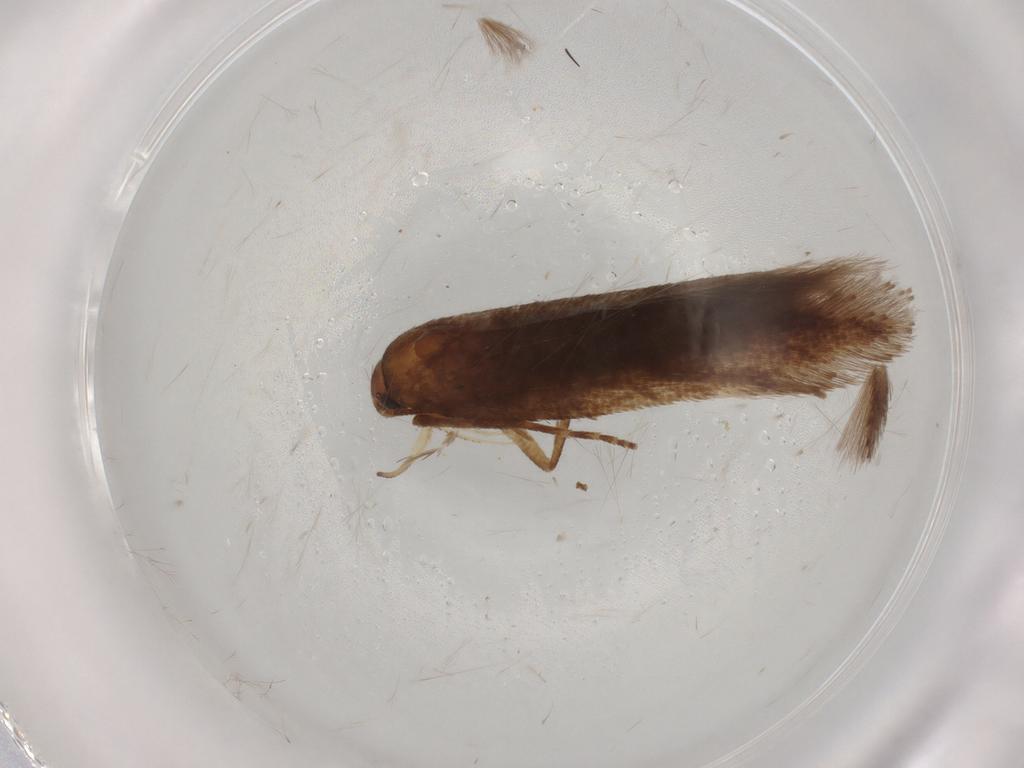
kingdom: Animalia
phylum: Arthropoda
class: Insecta
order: Lepidoptera
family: Gelechiidae
